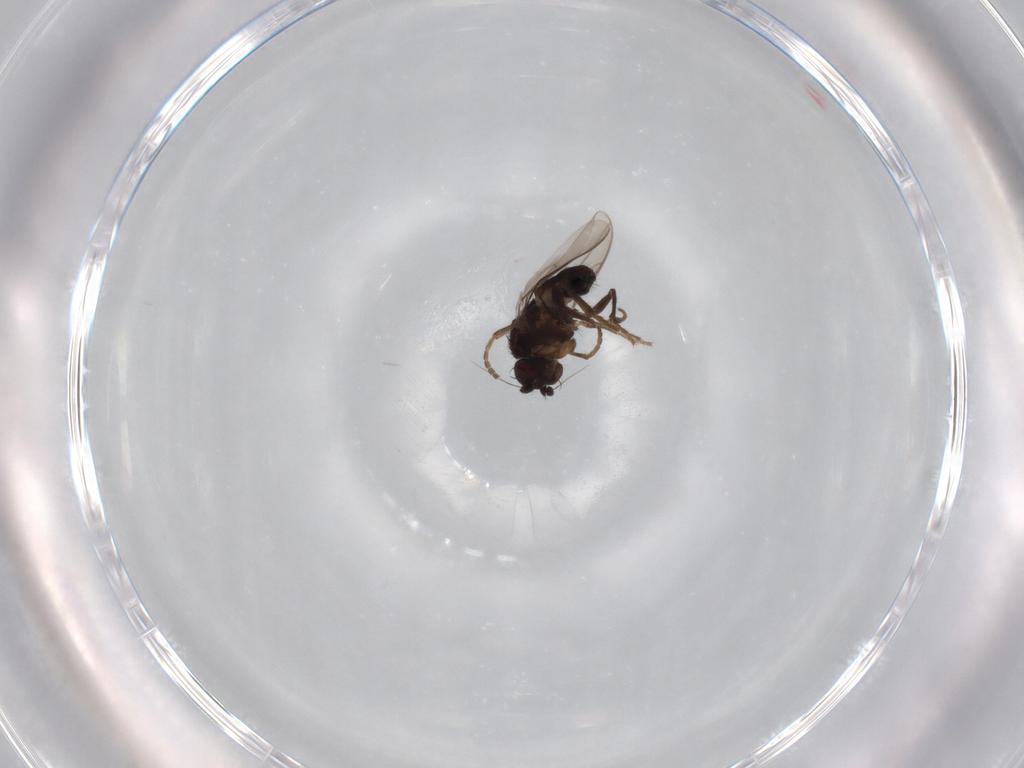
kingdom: Animalia
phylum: Arthropoda
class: Insecta
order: Diptera
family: Sphaeroceridae
